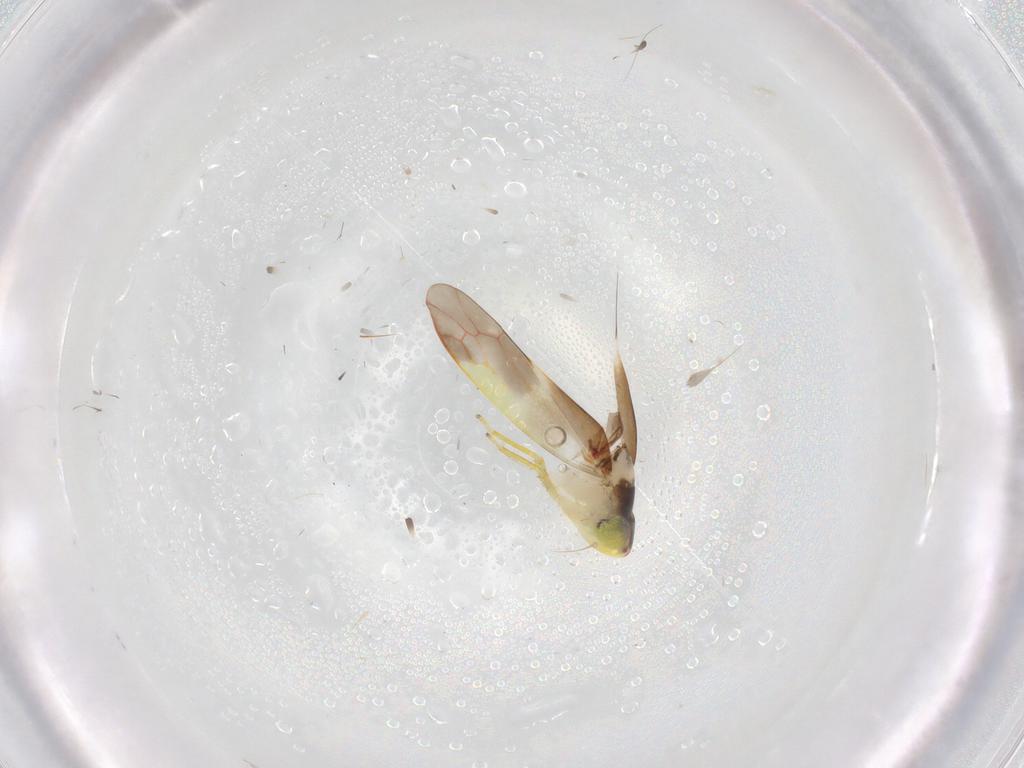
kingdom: Animalia
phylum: Arthropoda
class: Insecta
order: Hemiptera
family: Cicadellidae
